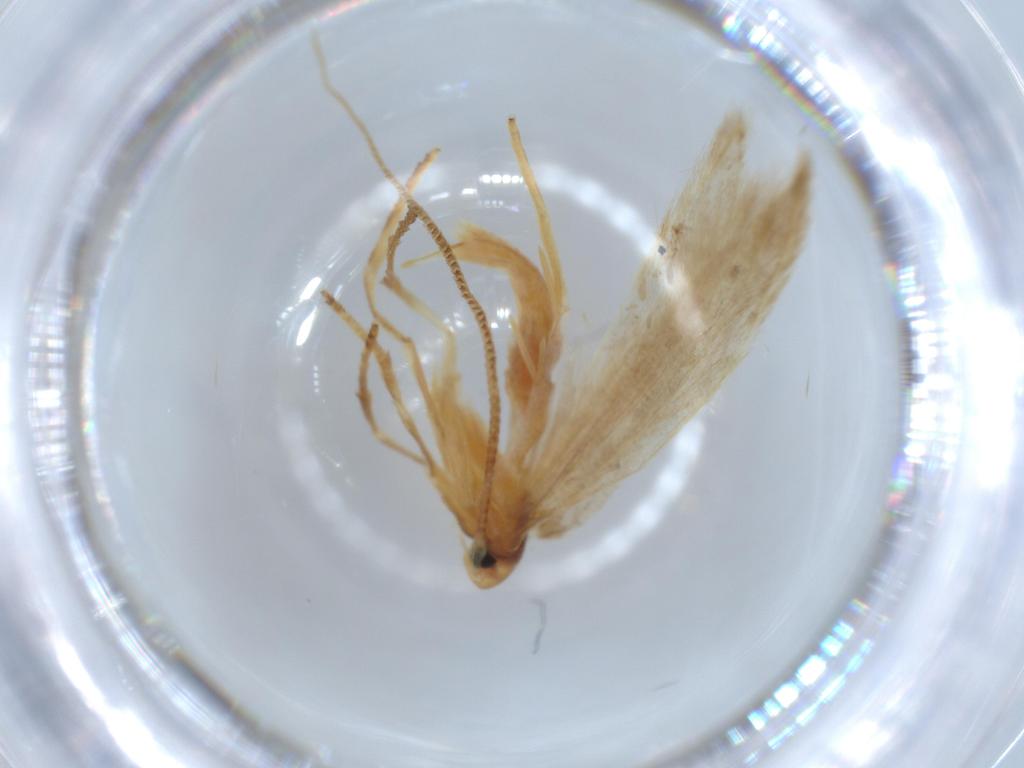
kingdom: Animalia
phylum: Arthropoda
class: Insecta
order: Lepidoptera
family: Elachistidae
